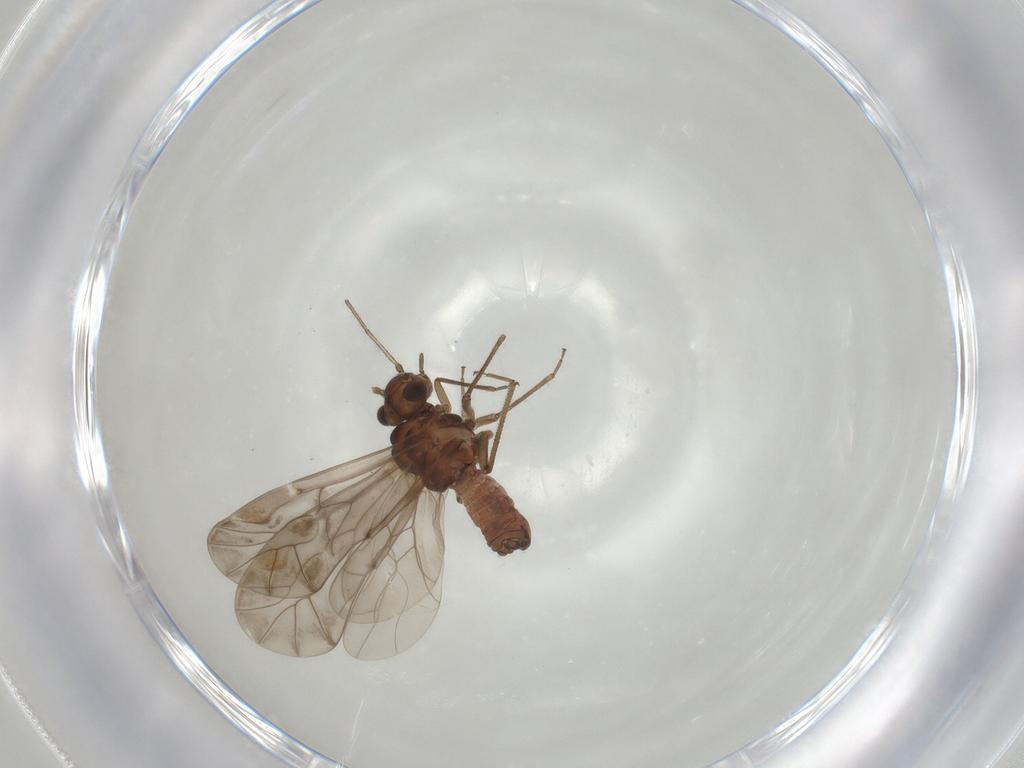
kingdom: Animalia
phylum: Arthropoda
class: Insecta
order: Psocodea
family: Peripsocidae
